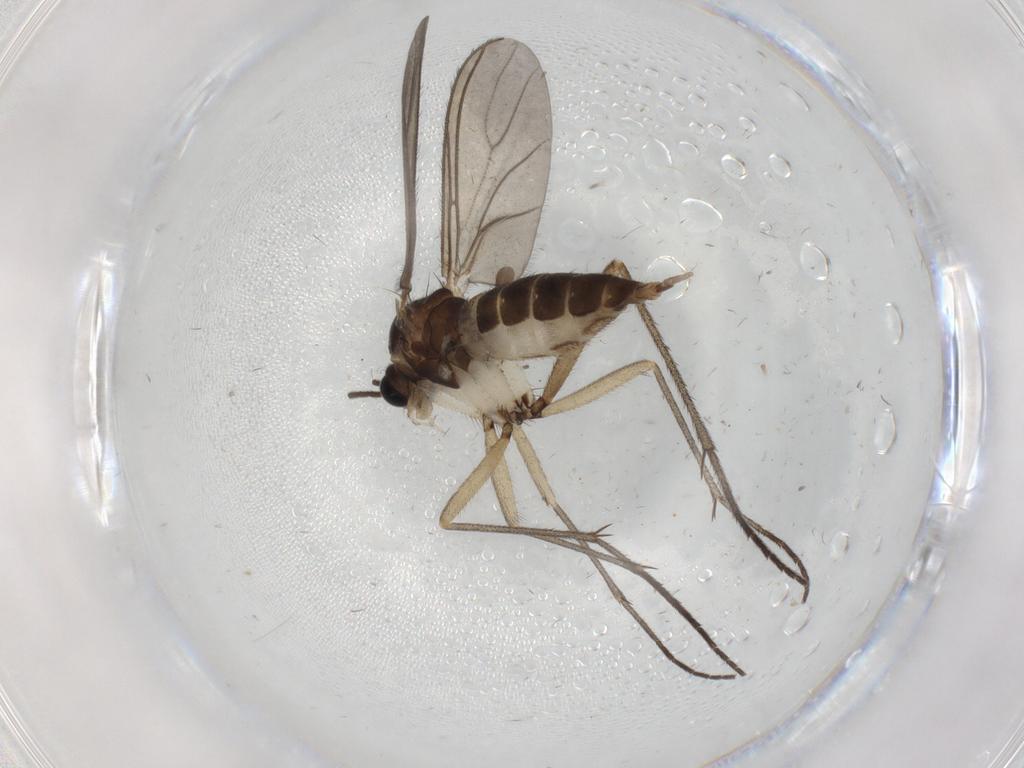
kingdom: Animalia
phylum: Arthropoda
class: Insecta
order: Diptera
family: Sciaridae
